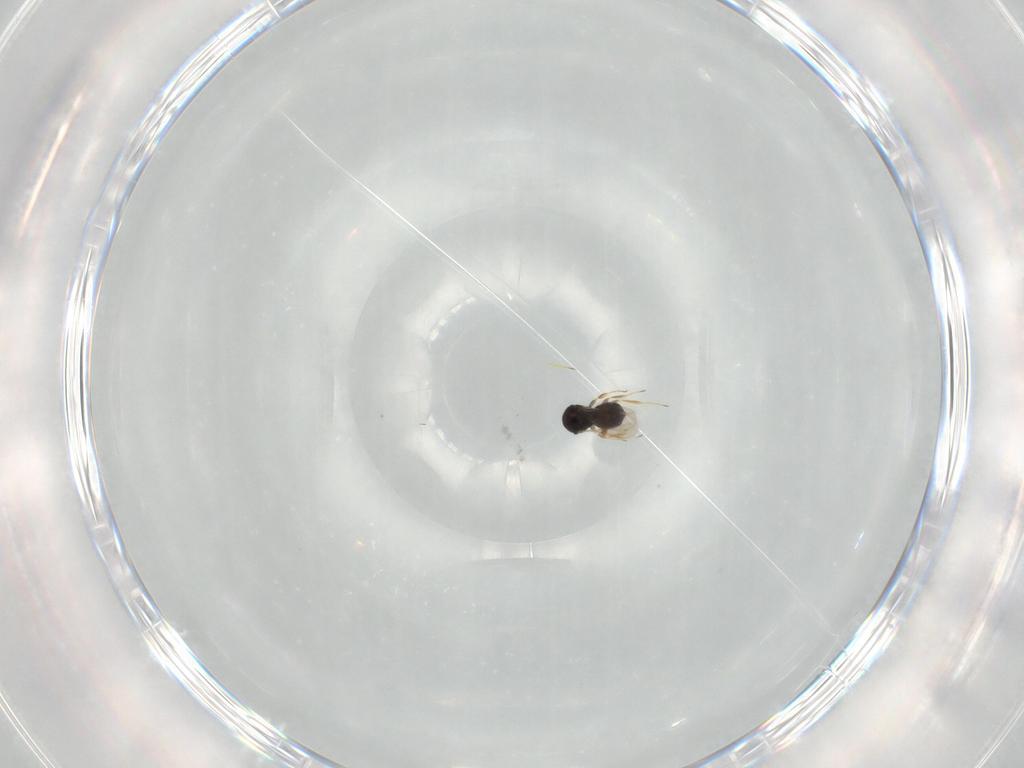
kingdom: Animalia
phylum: Arthropoda
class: Insecta
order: Hymenoptera
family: Scelionidae
